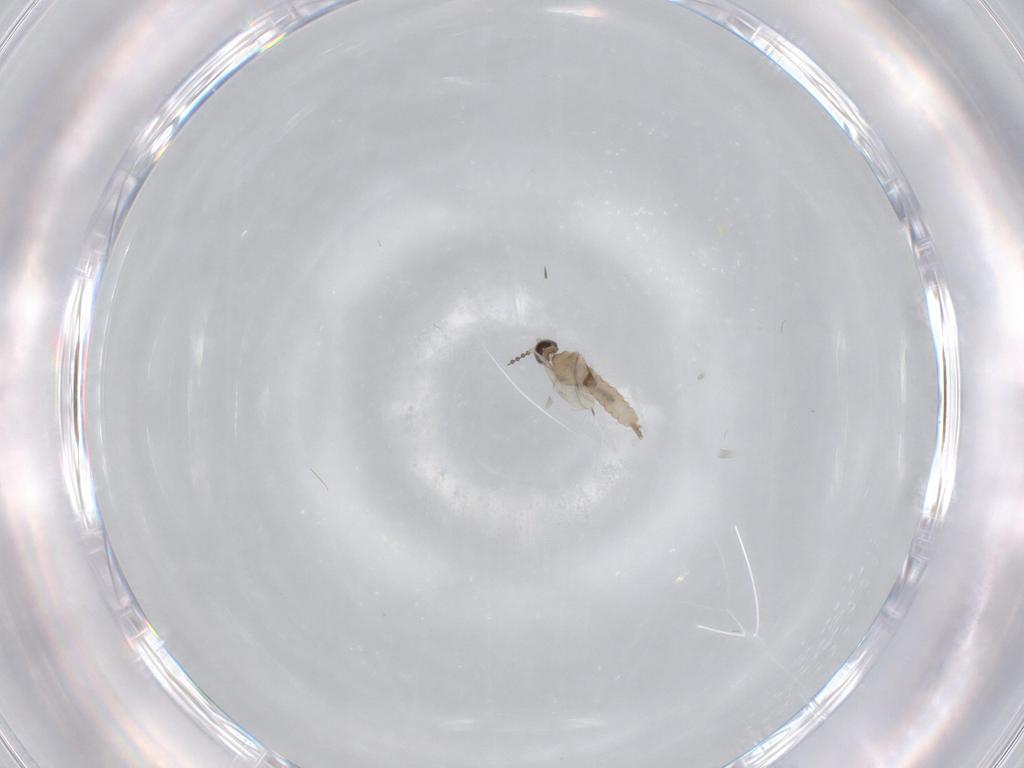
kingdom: Animalia
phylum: Arthropoda
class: Insecta
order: Diptera
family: Cecidomyiidae
